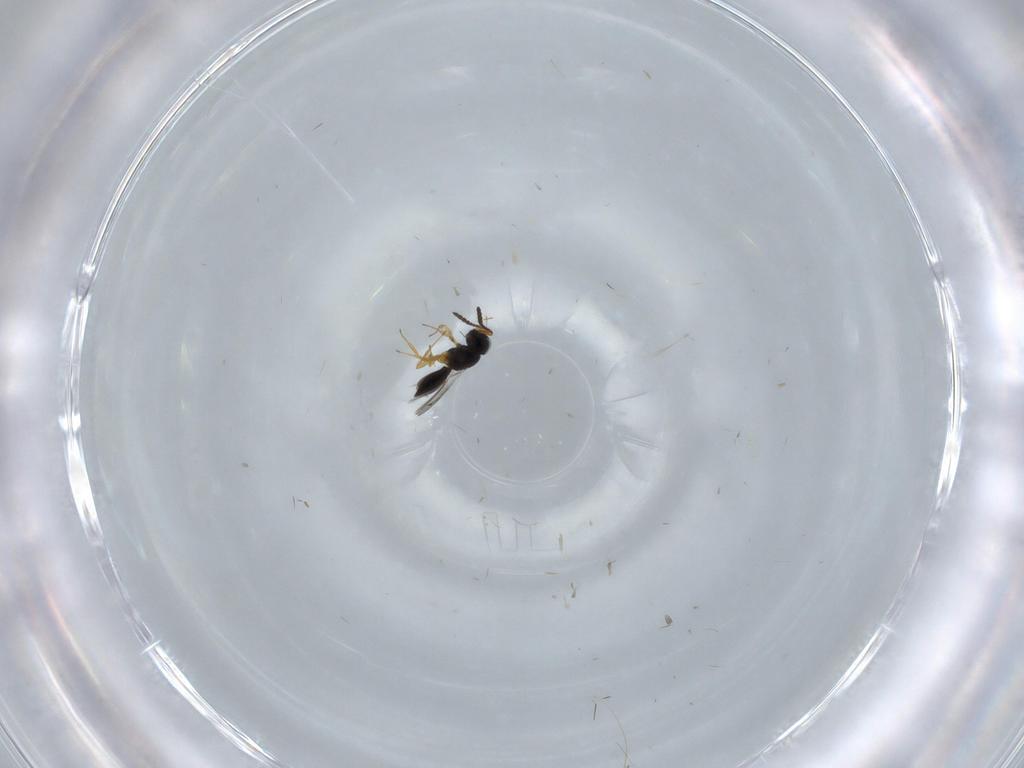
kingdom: Animalia
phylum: Arthropoda
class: Insecta
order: Hymenoptera
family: Scelionidae
